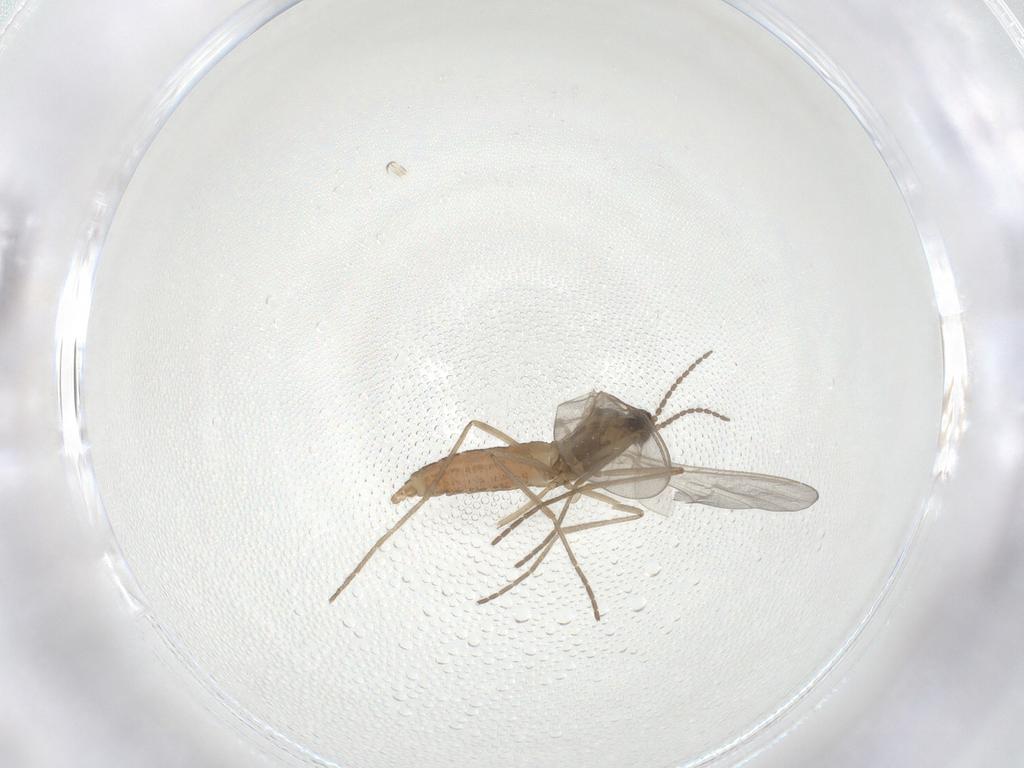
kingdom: Animalia
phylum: Arthropoda
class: Insecta
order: Diptera
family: Cecidomyiidae
